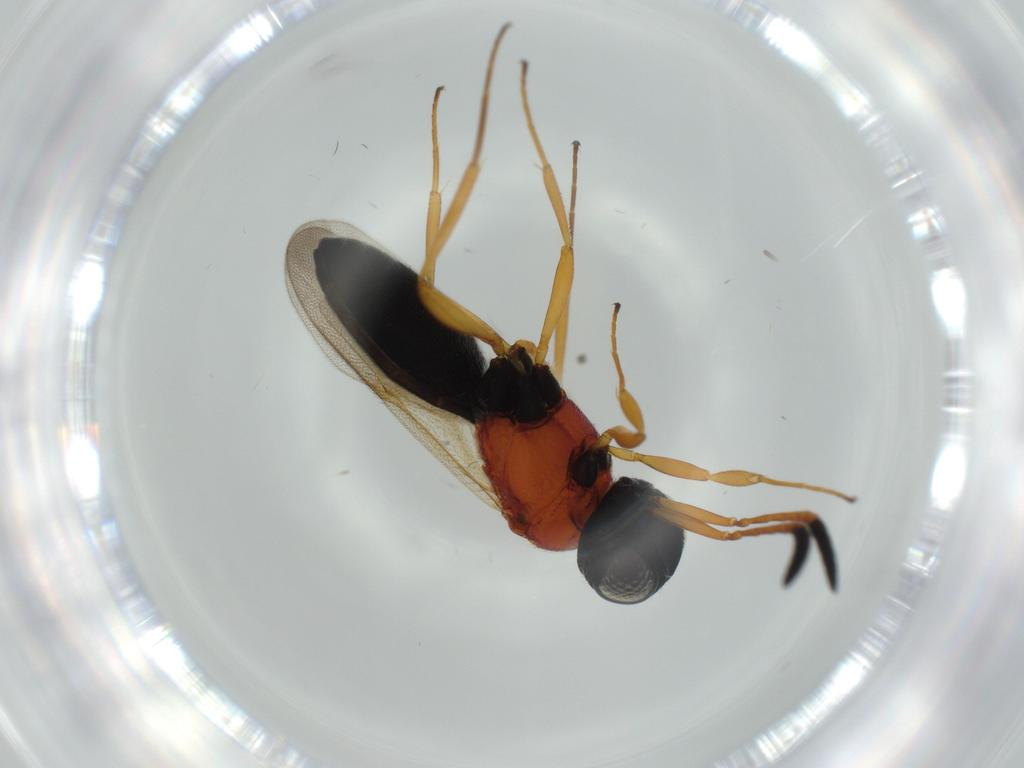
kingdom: Animalia
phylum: Arthropoda
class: Insecta
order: Hymenoptera
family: Scelionidae
